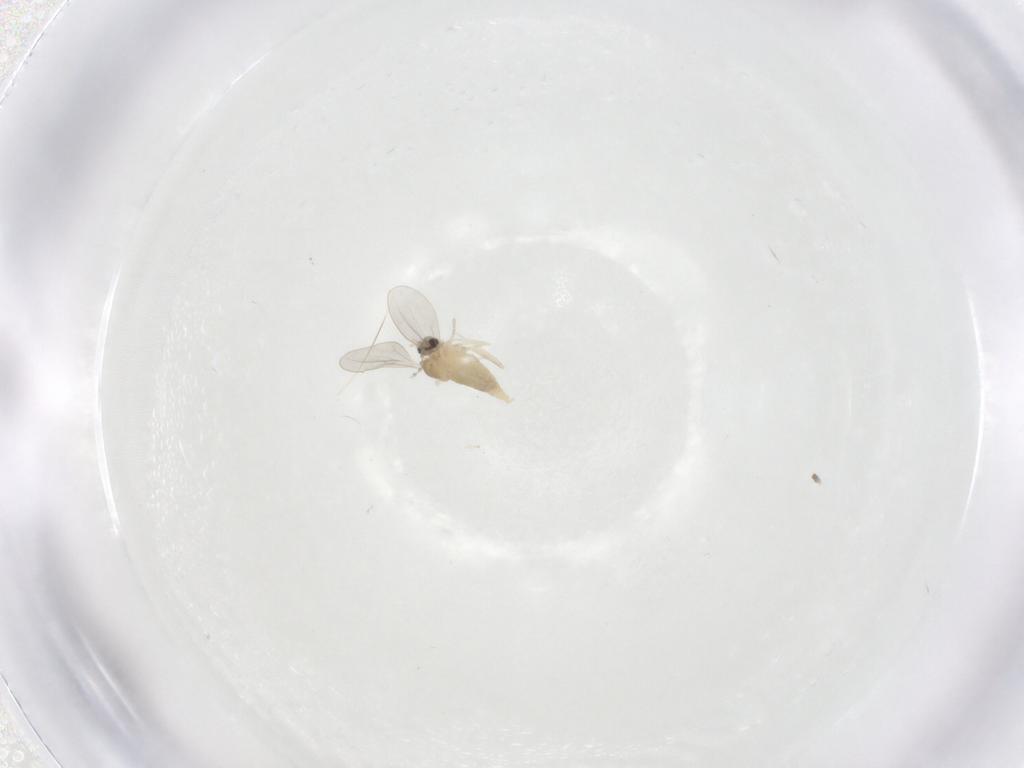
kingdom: Animalia
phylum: Arthropoda
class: Insecta
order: Diptera
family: Cecidomyiidae
